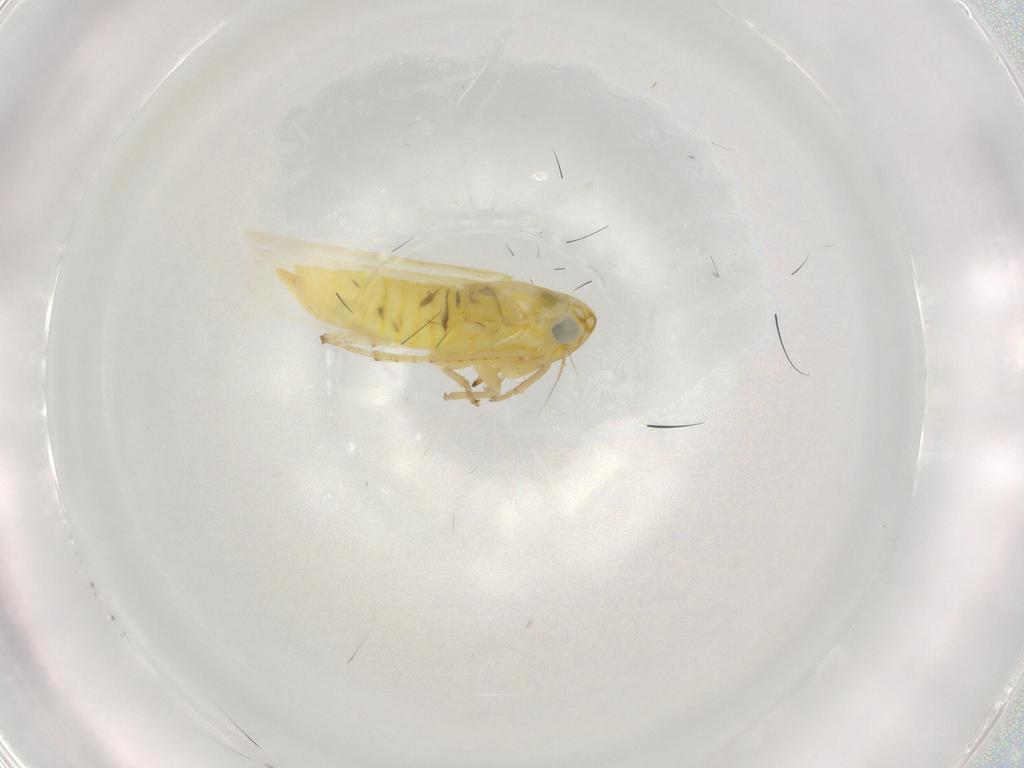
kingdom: Animalia
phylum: Arthropoda
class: Insecta
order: Hemiptera
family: Cicadellidae
